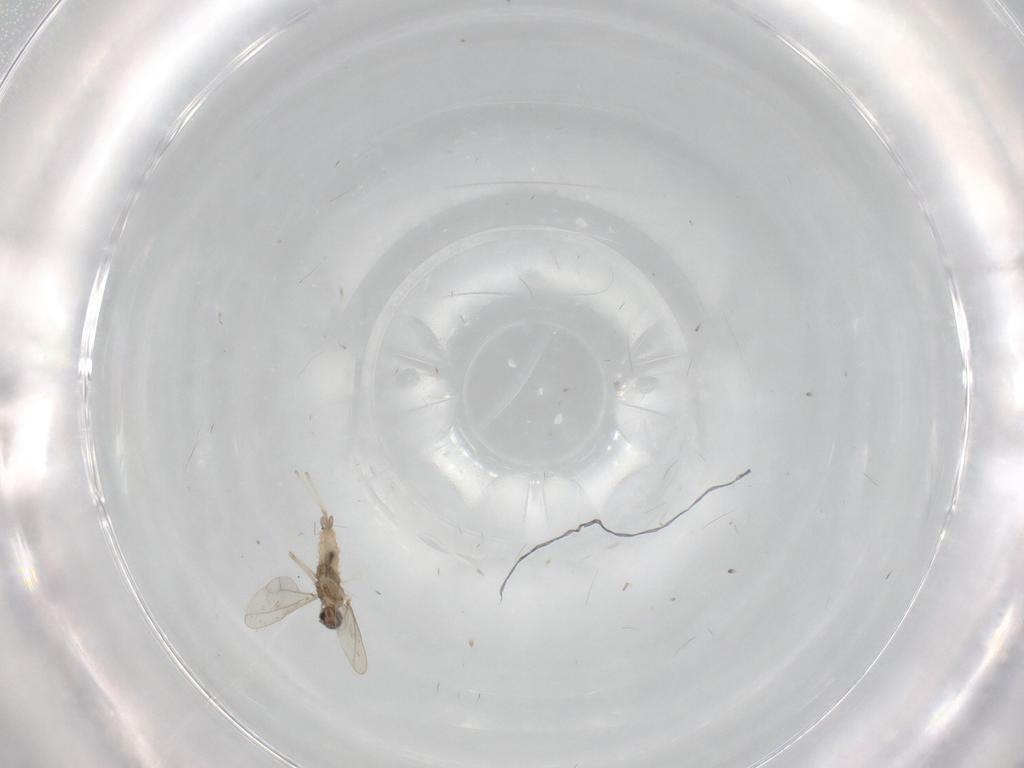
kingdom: Animalia
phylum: Arthropoda
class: Insecta
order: Diptera
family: Cecidomyiidae
